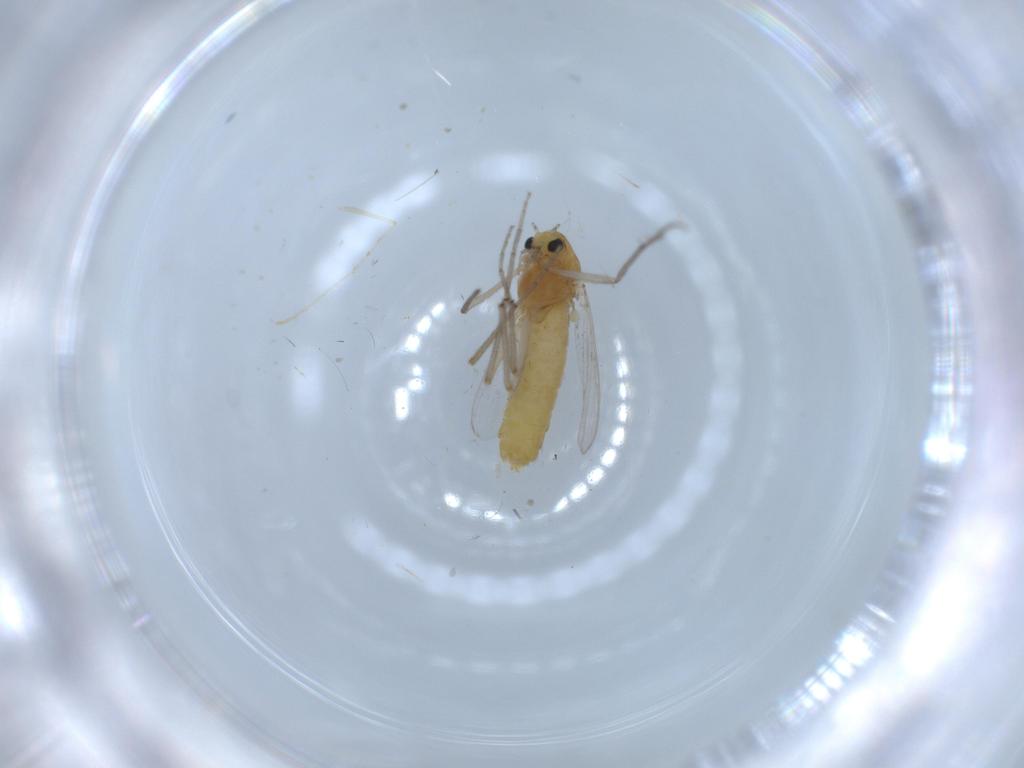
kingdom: Animalia
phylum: Arthropoda
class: Insecta
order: Diptera
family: Chironomidae
